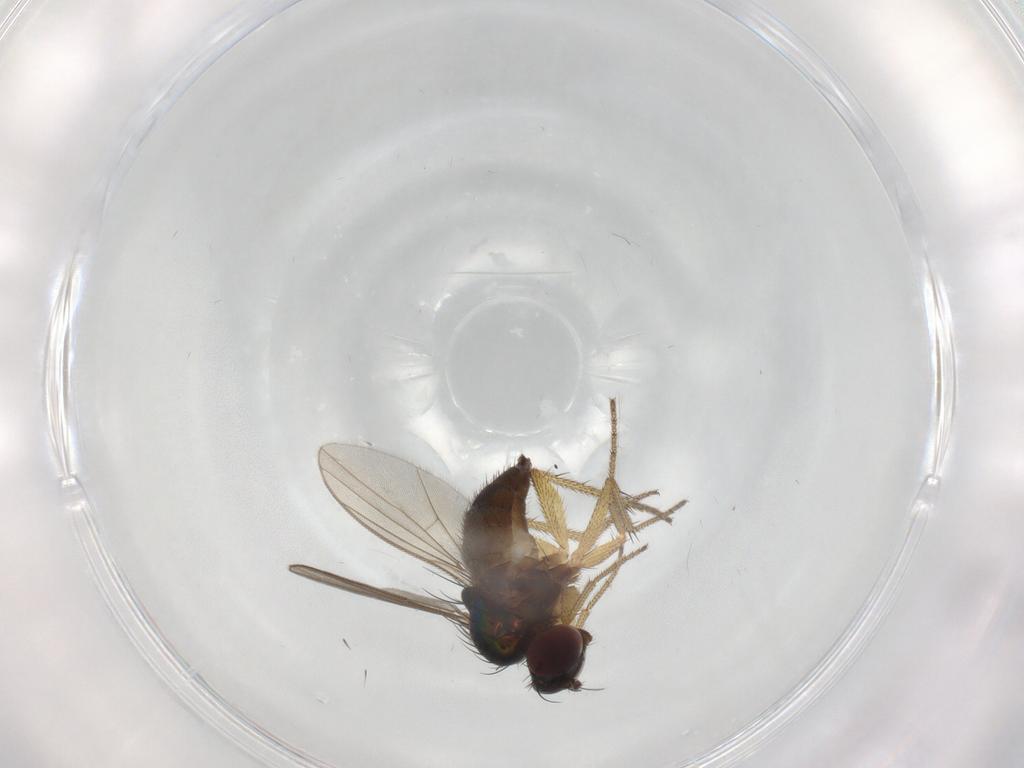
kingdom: Animalia
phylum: Arthropoda
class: Insecta
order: Diptera
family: Dolichopodidae
